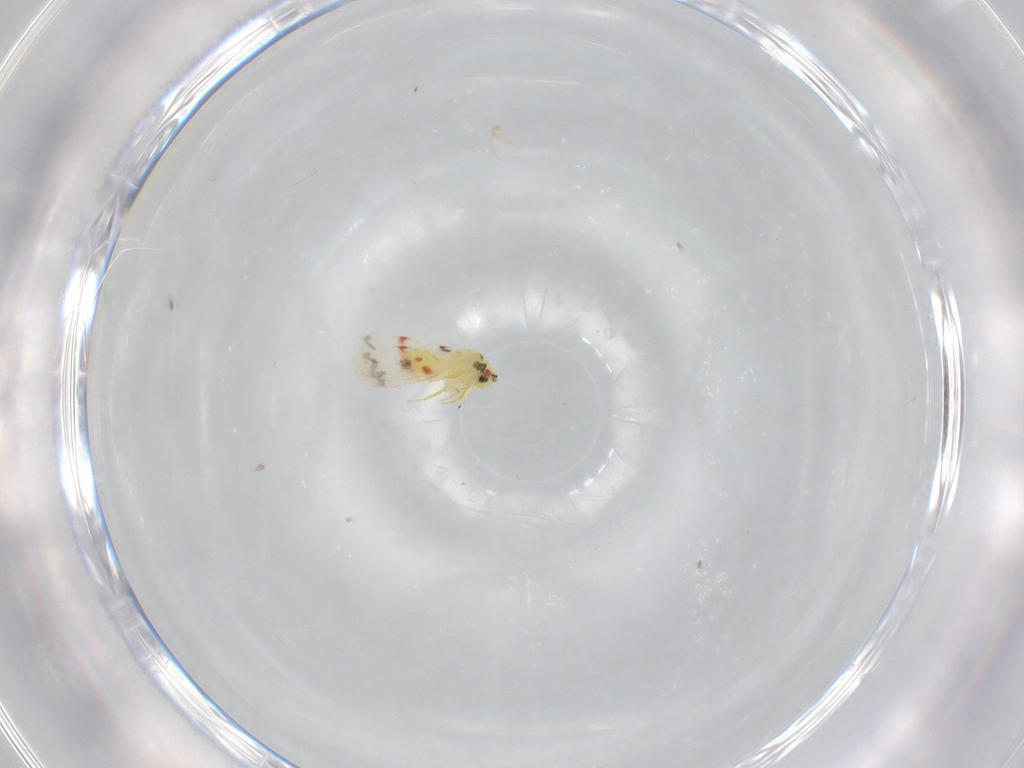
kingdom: Animalia
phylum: Arthropoda
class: Insecta
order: Hemiptera
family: Aleyrodidae
